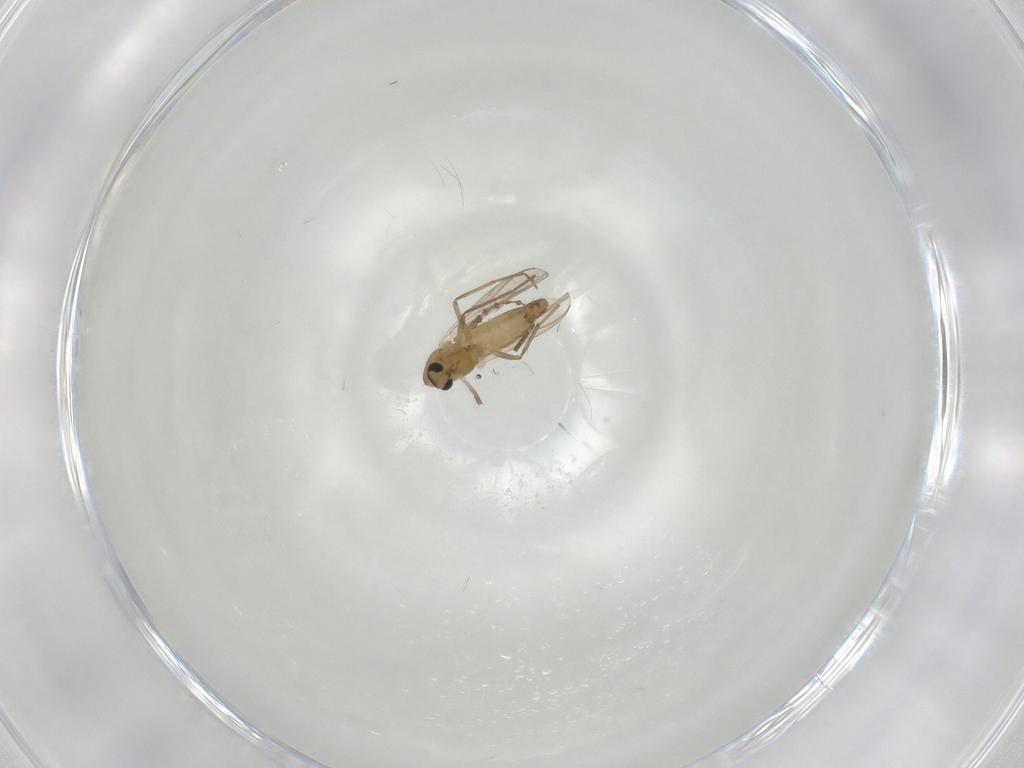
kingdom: Animalia
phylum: Arthropoda
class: Insecta
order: Diptera
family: Chironomidae
